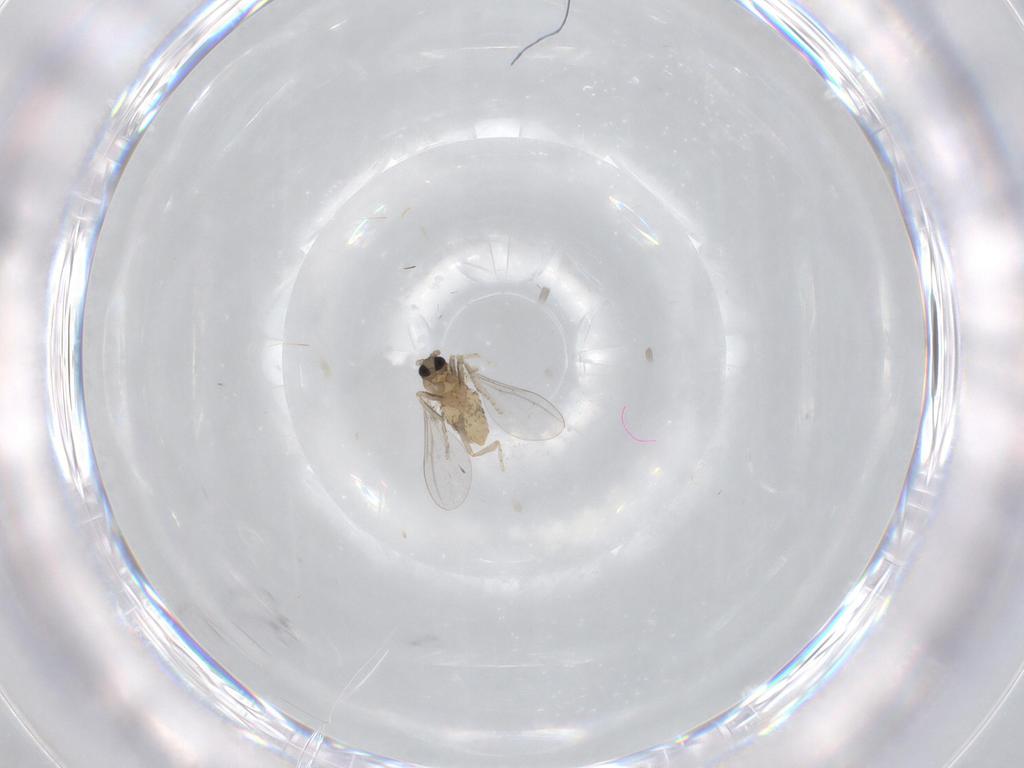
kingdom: Animalia
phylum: Arthropoda
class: Insecta
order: Diptera
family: Cecidomyiidae
